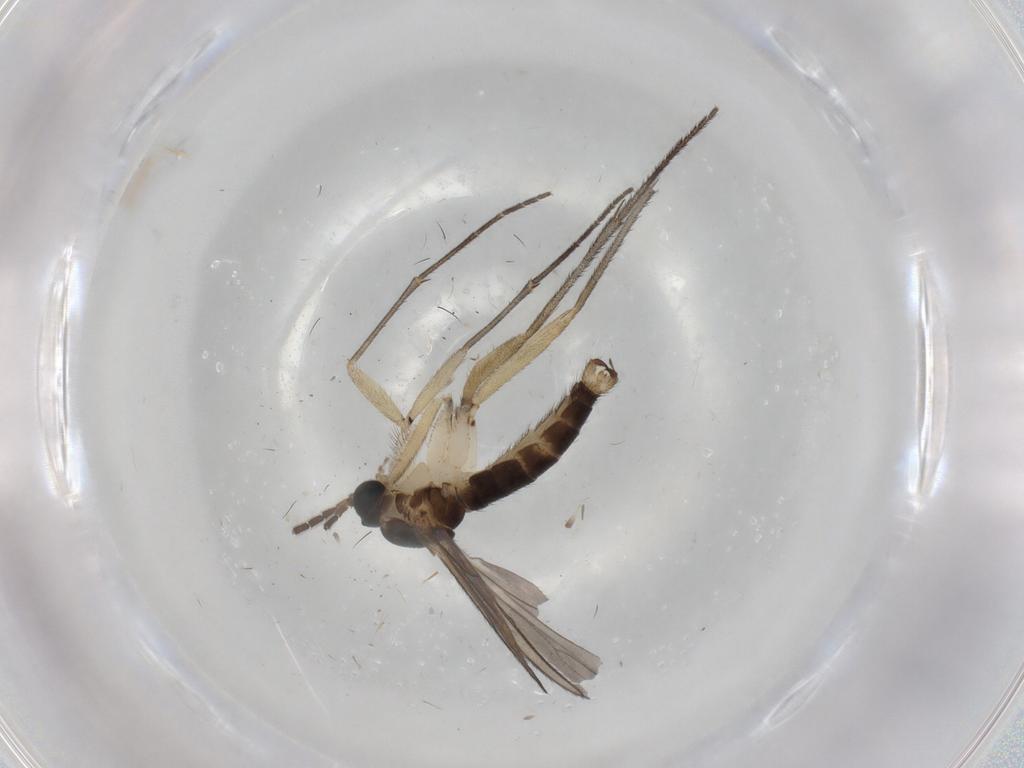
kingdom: Animalia
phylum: Arthropoda
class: Insecta
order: Diptera
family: Sciaridae
